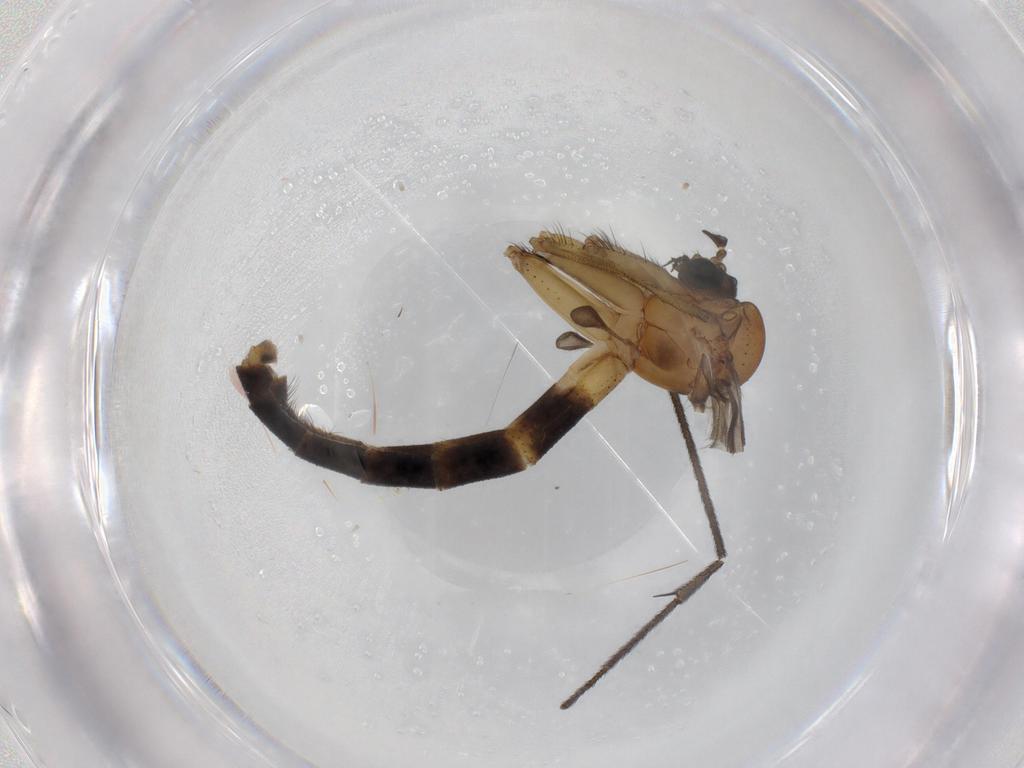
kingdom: Animalia
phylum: Arthropoda
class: Insecta
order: Diptera
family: Sciaridae
